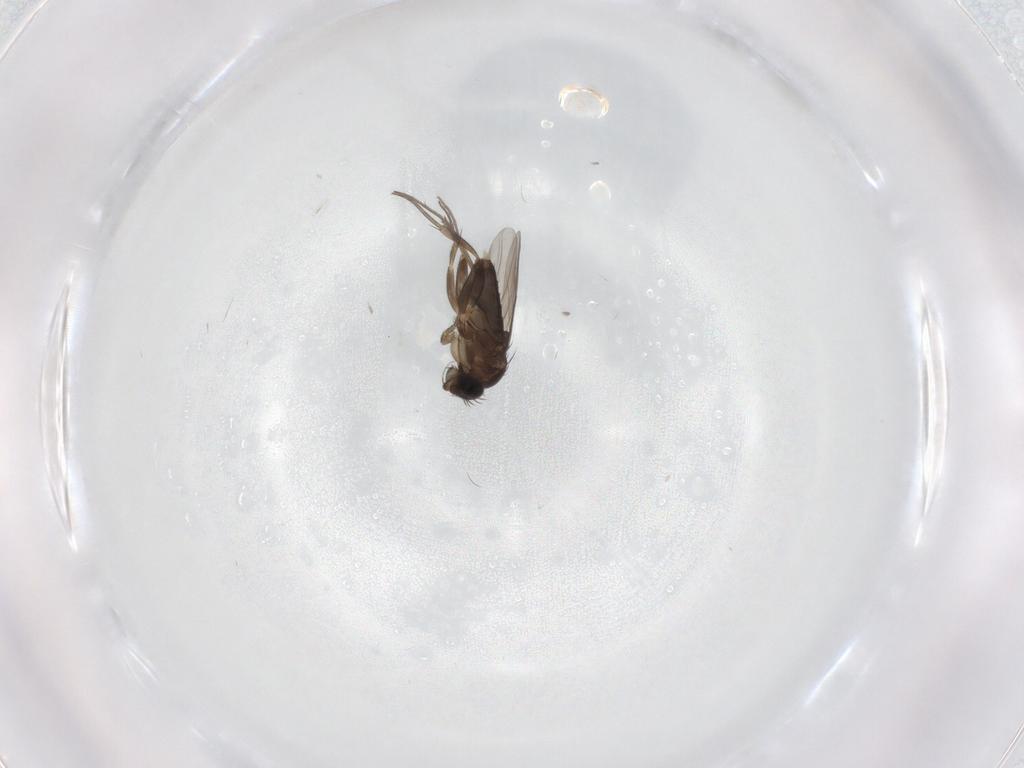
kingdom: Animalia
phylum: Arthropoda
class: Insecta
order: Diptera
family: Phoridae
